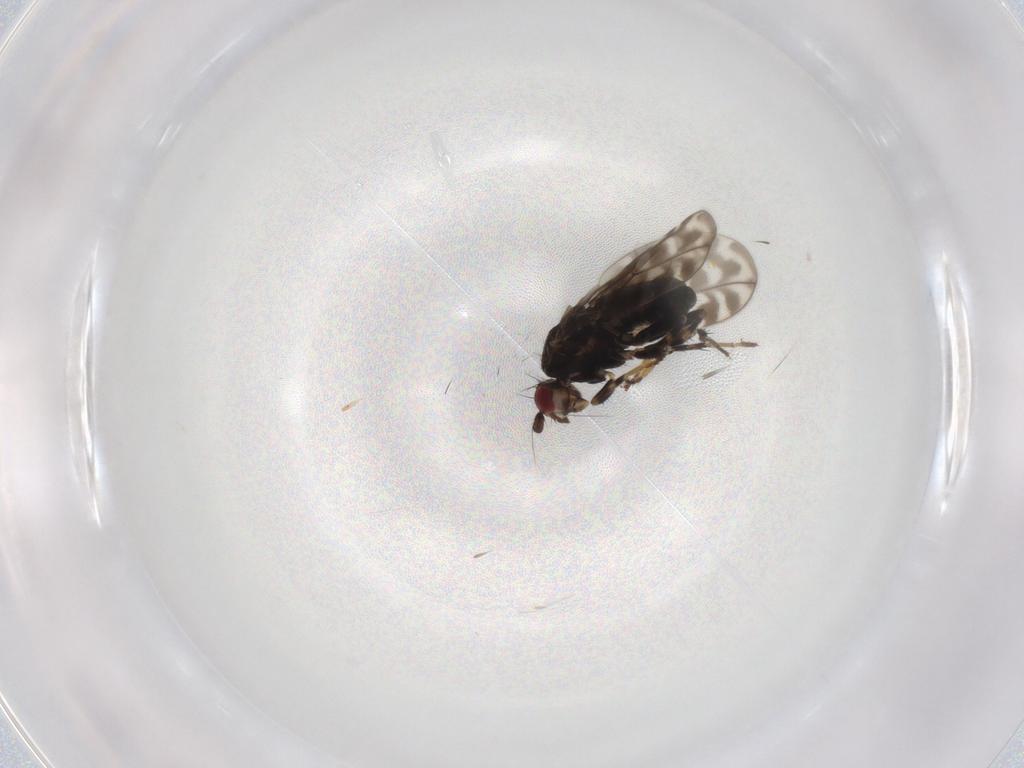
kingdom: Animalia
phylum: Arthropoda
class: Insecta
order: Diptera
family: Sphaeroceridae
